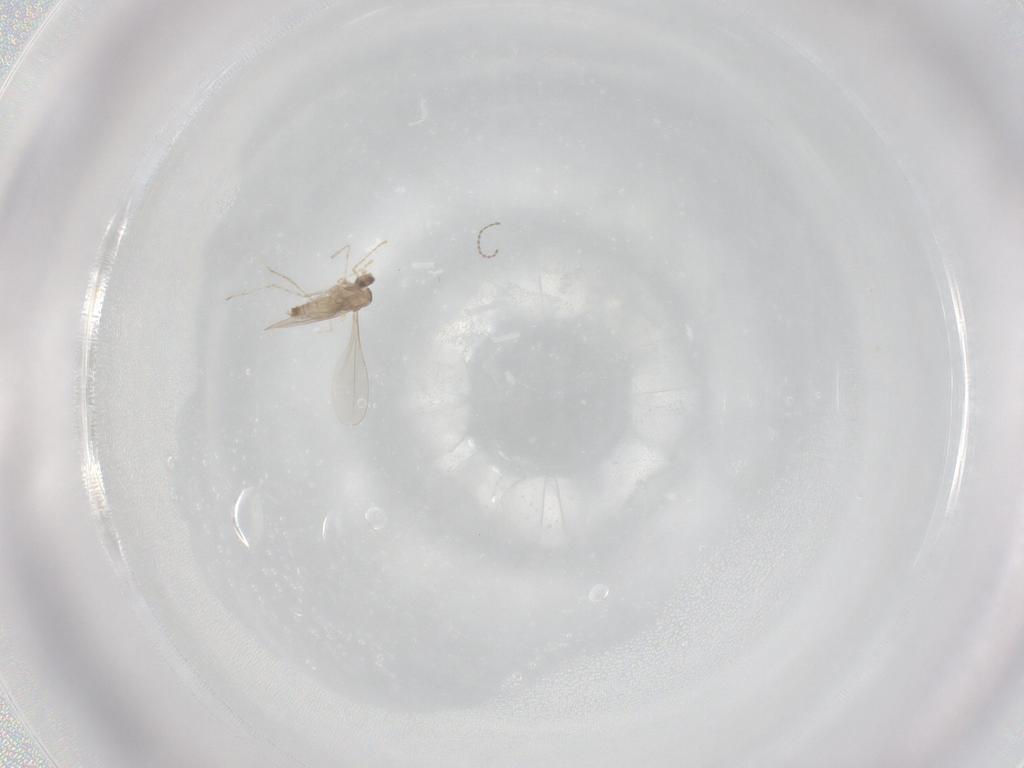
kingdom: Animalia
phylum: Arthropoda
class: Insecta
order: Diptera
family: Cecidomyiidae
